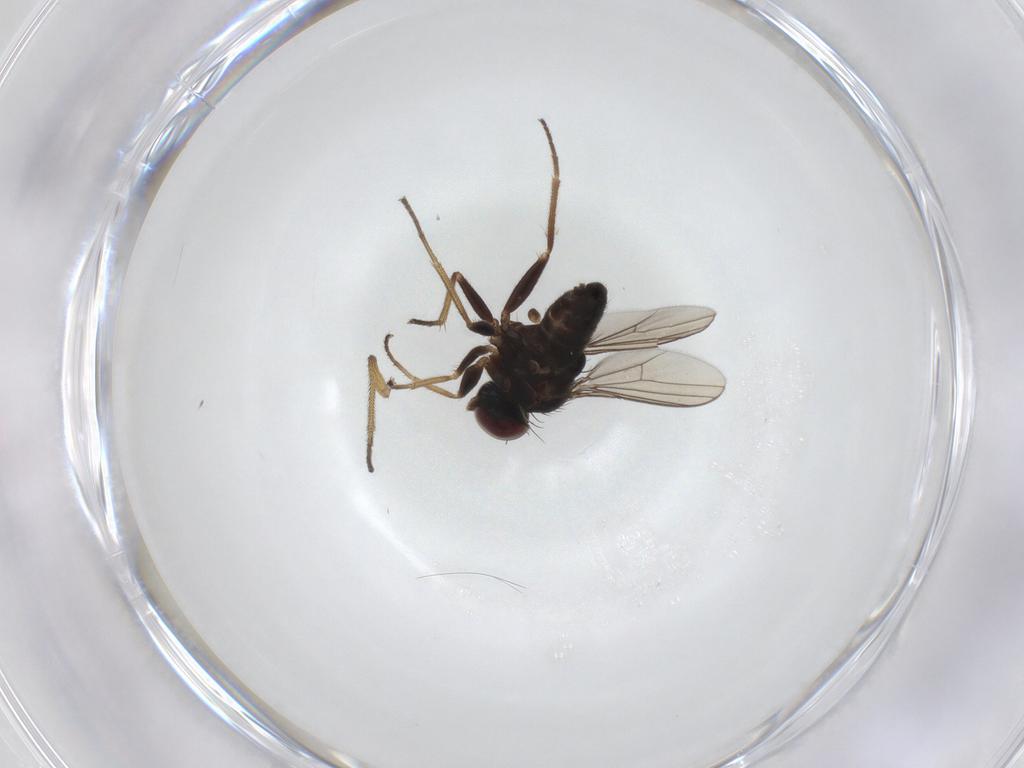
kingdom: Animalia
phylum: Arthropoda
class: Insecta
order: Diptera
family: Dolichopodidae
